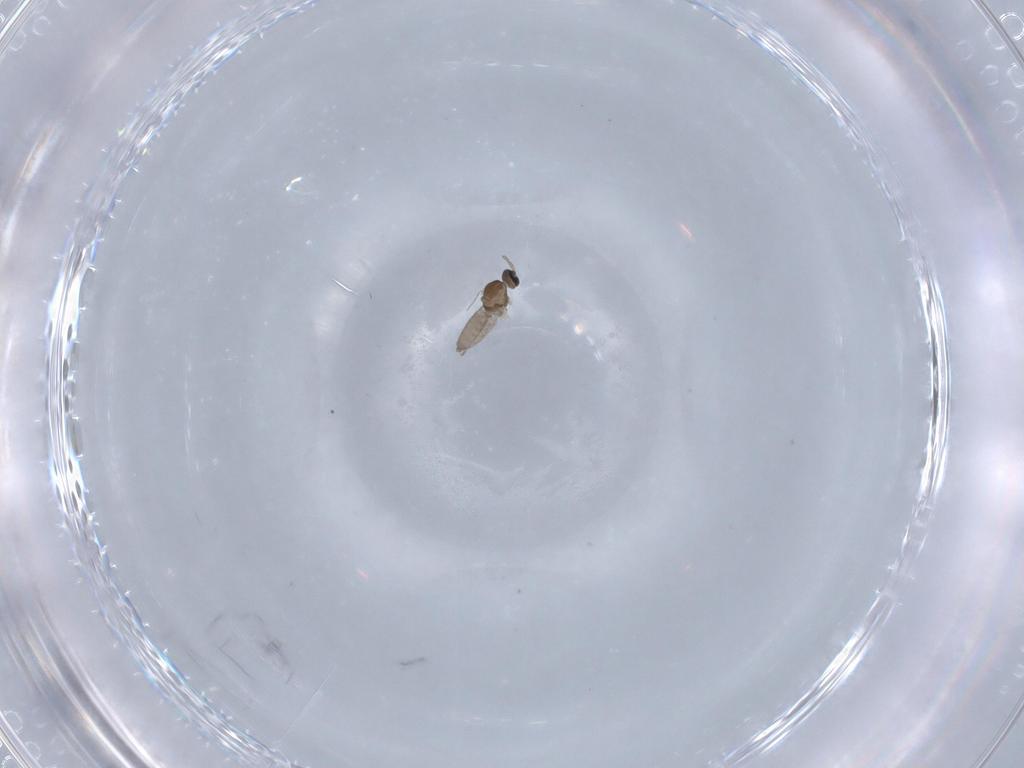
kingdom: Animalia
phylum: Arthropoda
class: Insecta
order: Diptera
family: Cecidomyiidae
